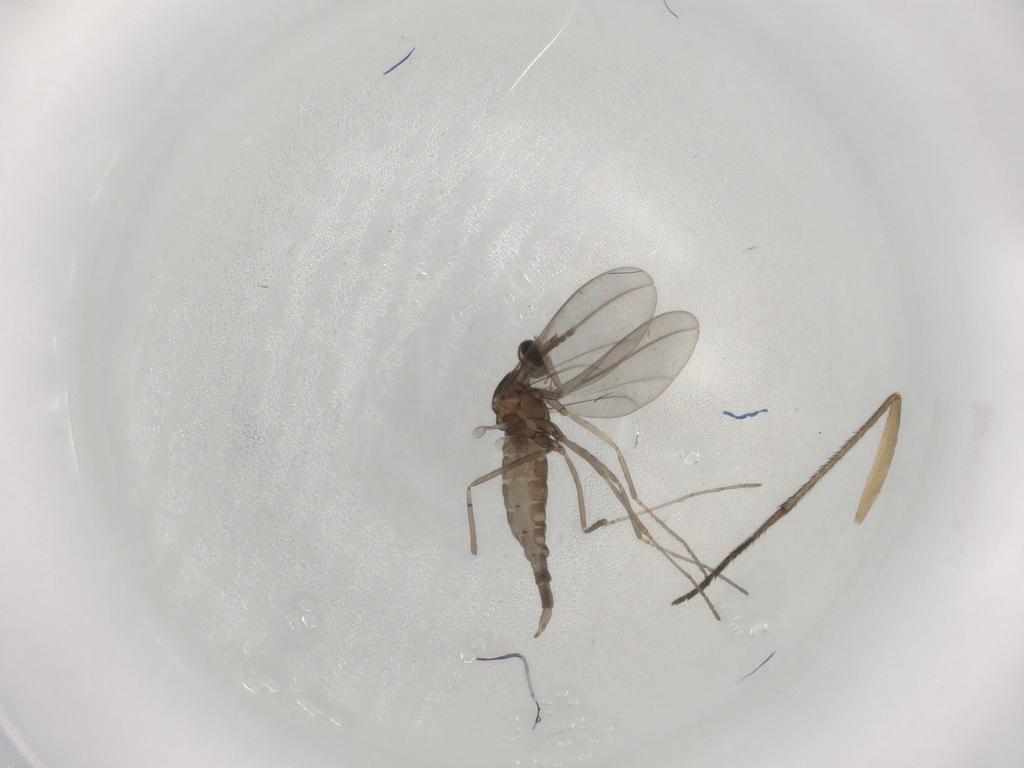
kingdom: Animalia
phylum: Arthropoda
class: Insecta
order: Diptera
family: Cecidomyiidae
